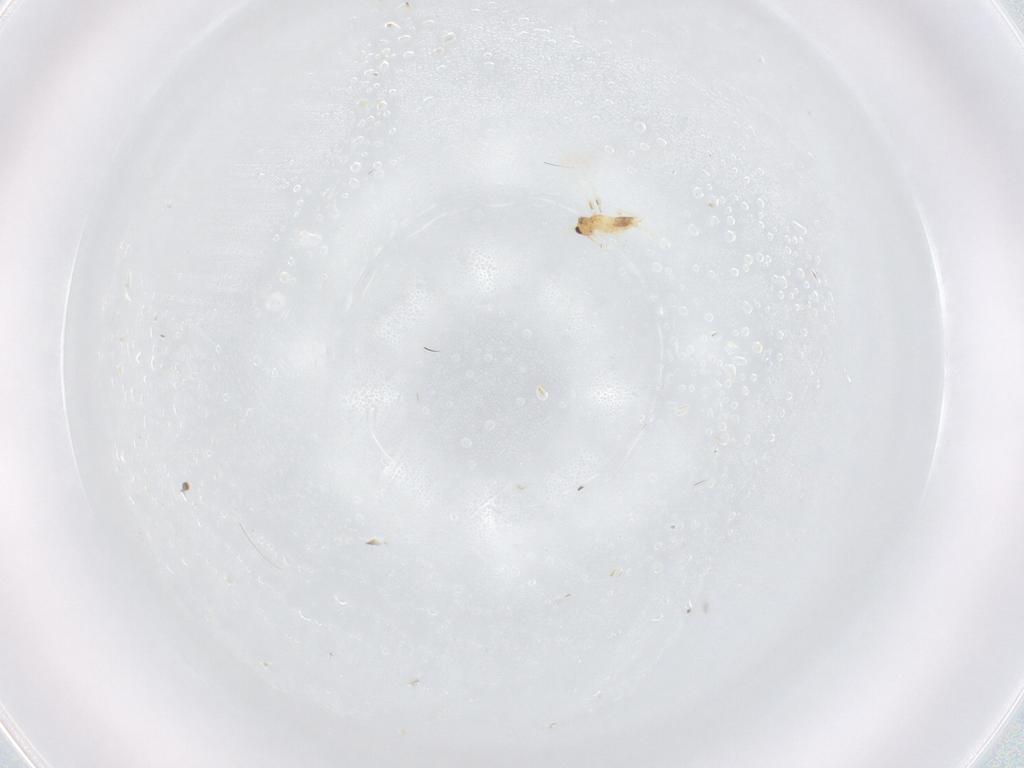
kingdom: Animalia
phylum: Arthropoda
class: Insecta
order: Hymenoptera
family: Mymaridae
